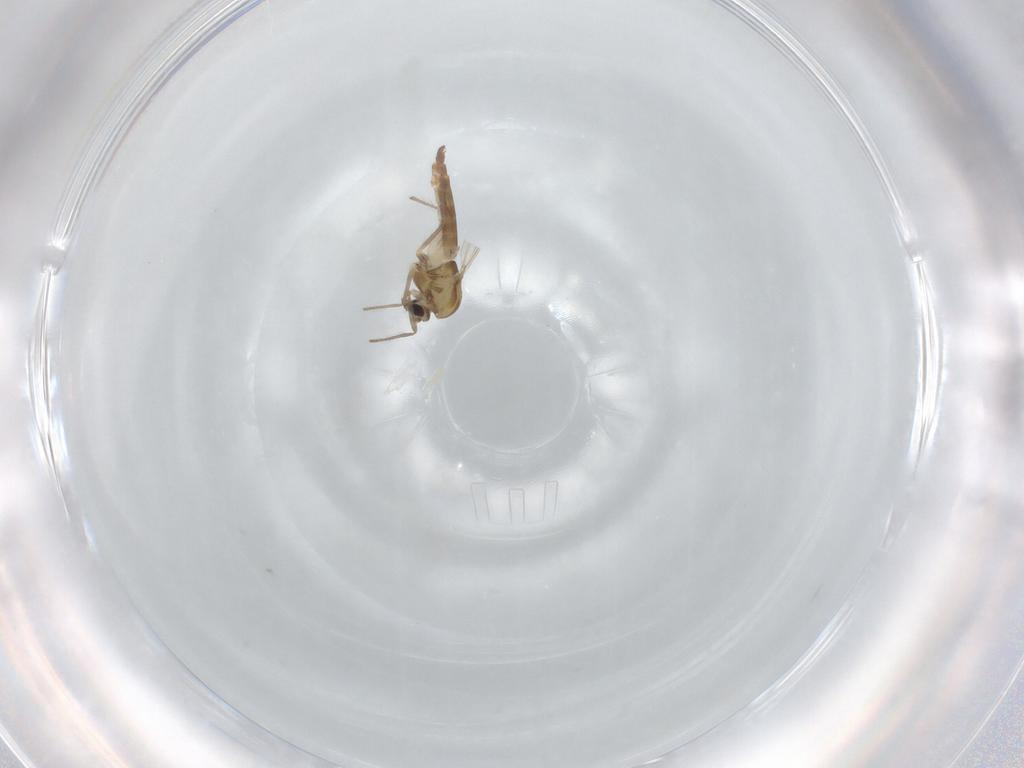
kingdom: Animalia
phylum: Arthropoda
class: Insecta
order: Diptera
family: Chironomidae
